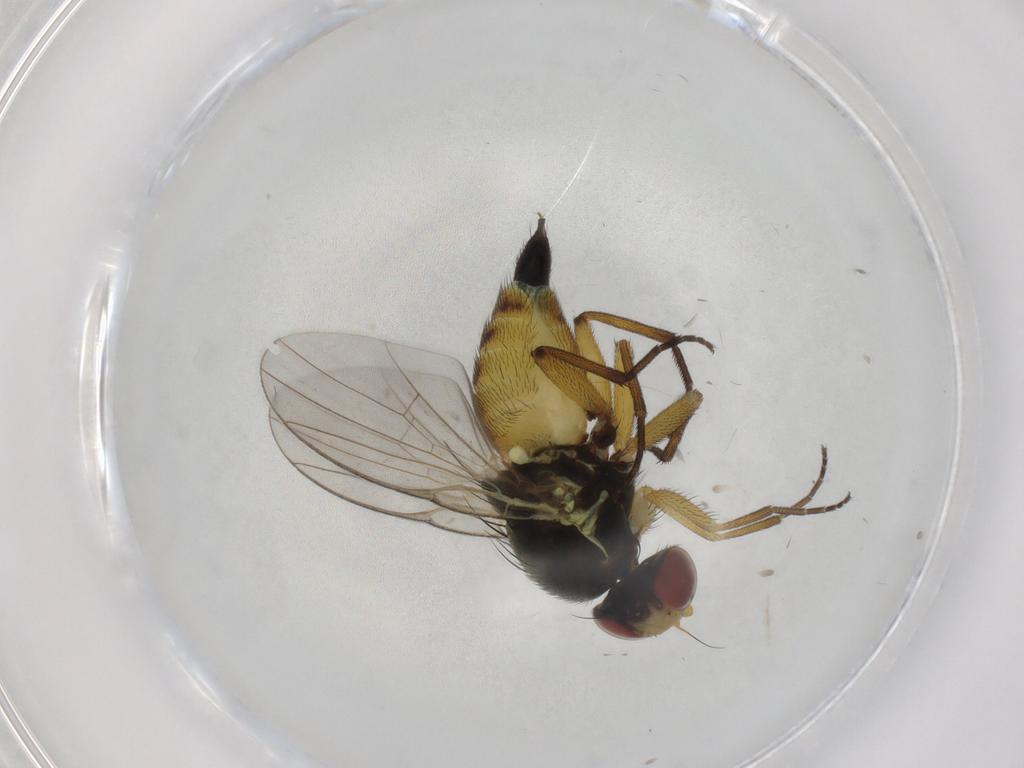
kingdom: Animalia
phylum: Arthropoda
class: Insecta
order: Diptera
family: Agromyzidae
